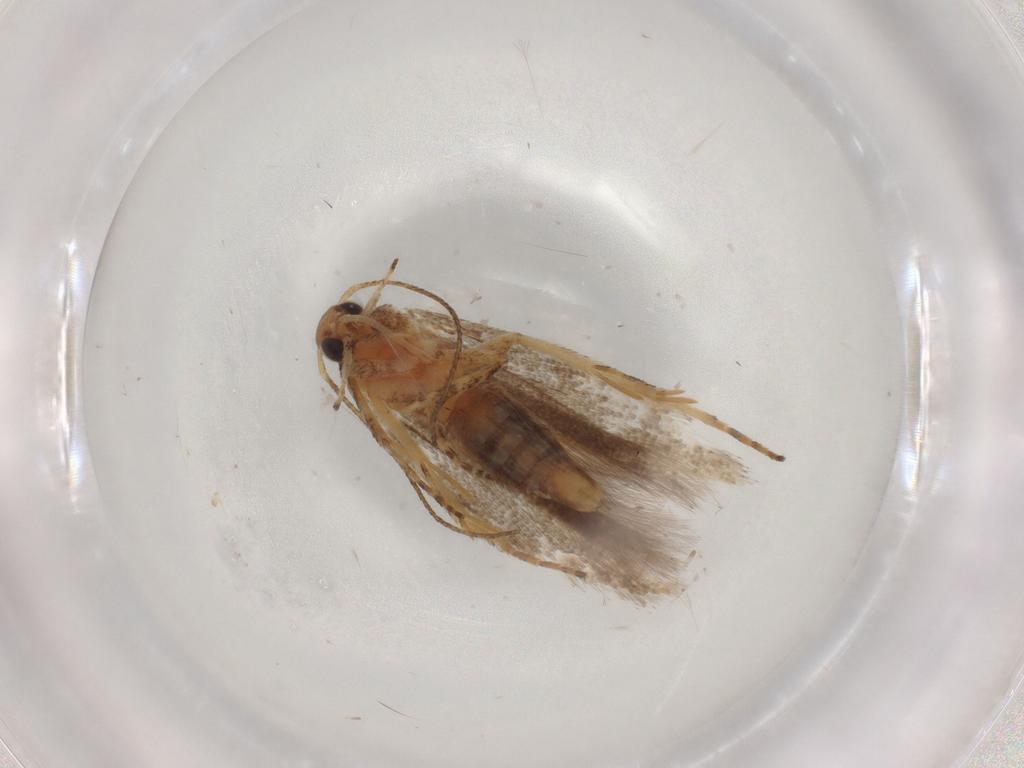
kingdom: Animalia
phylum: Arthropoda
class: Insecta
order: Lepidoptera
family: Gelechiidae
